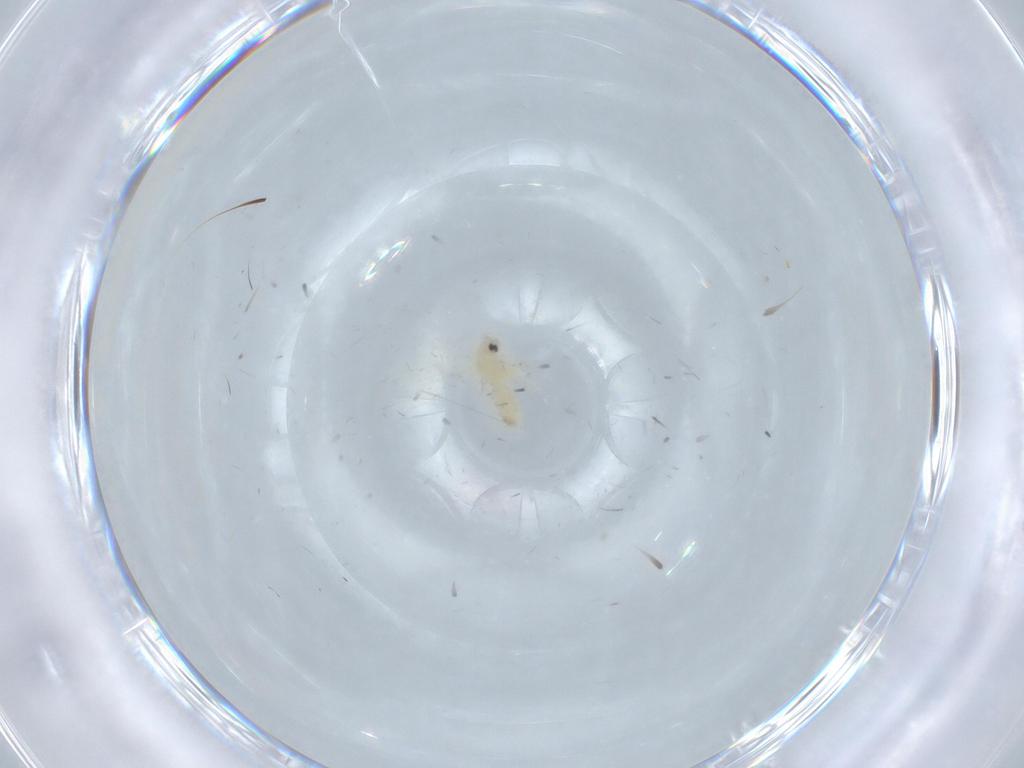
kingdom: Animalia
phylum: Arthropoda
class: Insecta
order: Hemiptera
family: Aleyrodidae
